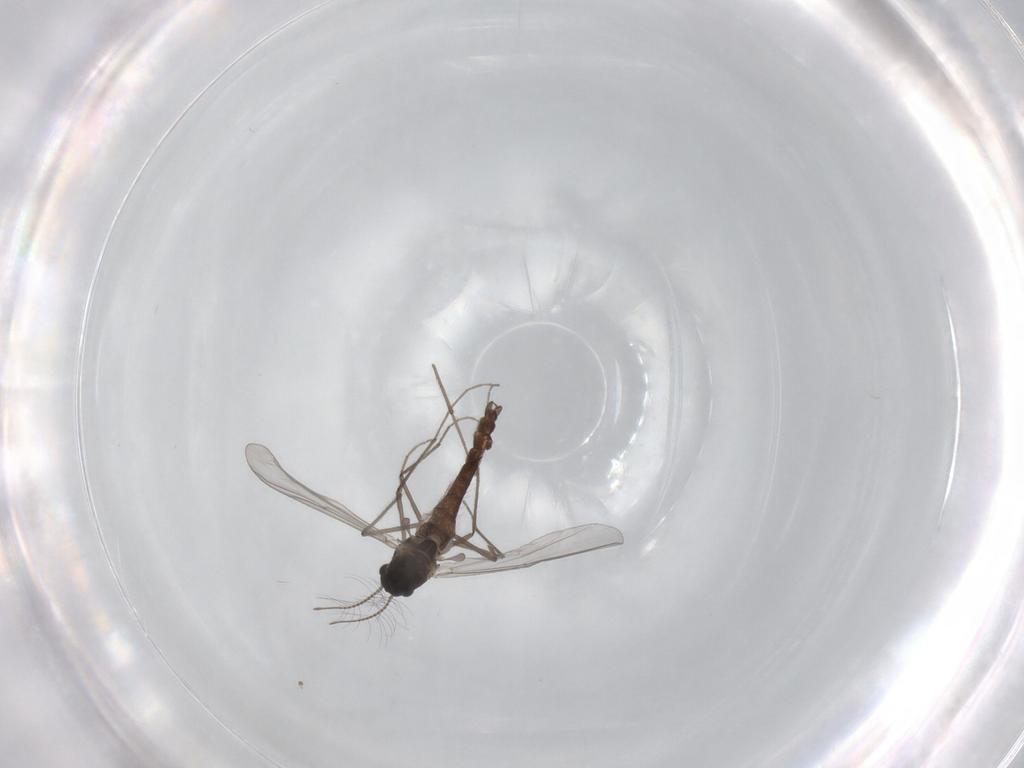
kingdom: Animalia
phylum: Arthropoda
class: Insecta
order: Diptera
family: Chironomidae
